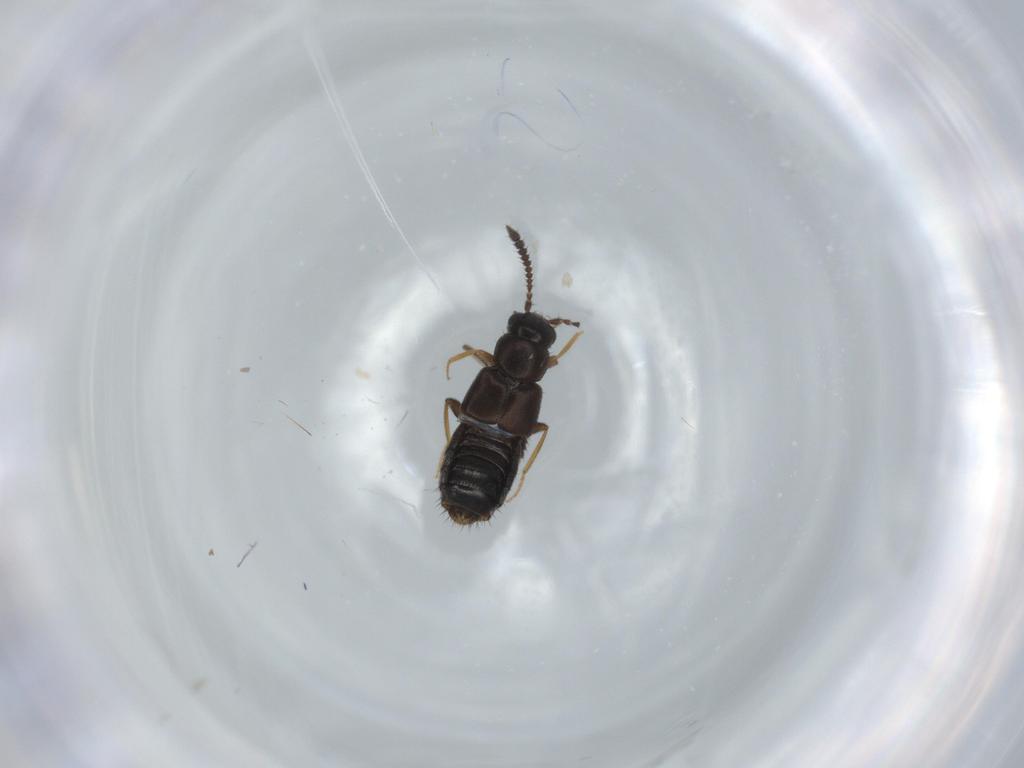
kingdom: Animalia
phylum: Arthropoda
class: Insecta
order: Coleoptera
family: Staphylinidae
